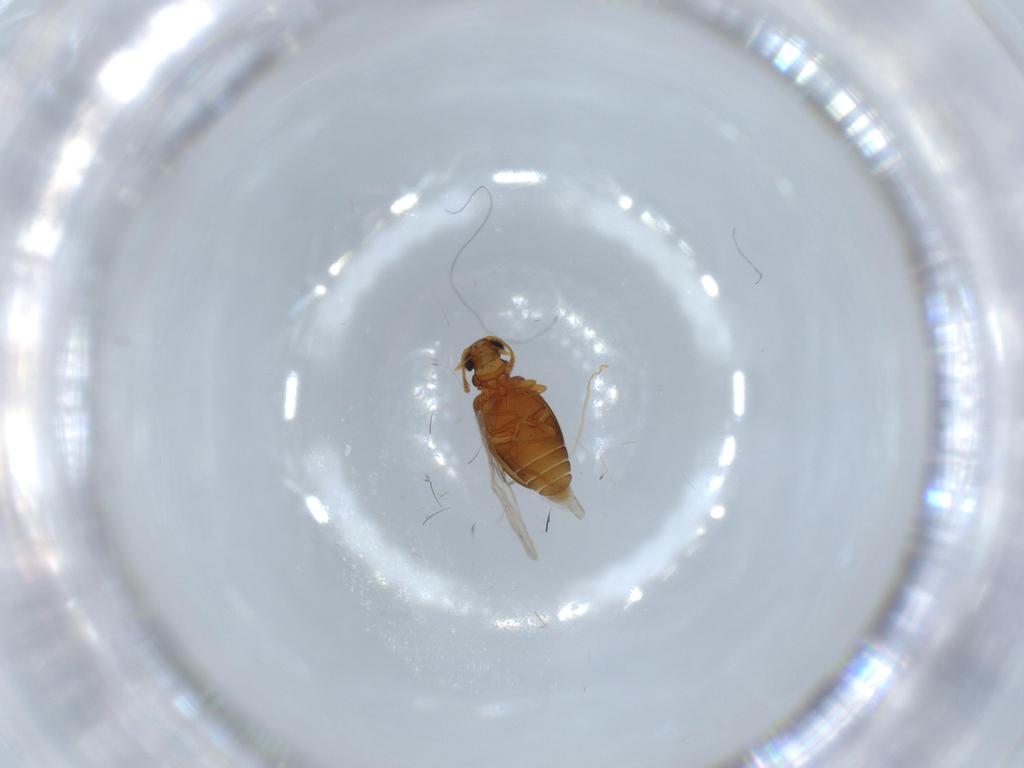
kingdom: Animalia
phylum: Arthropoda
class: Insecta
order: Coleoptera
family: Aderidae
